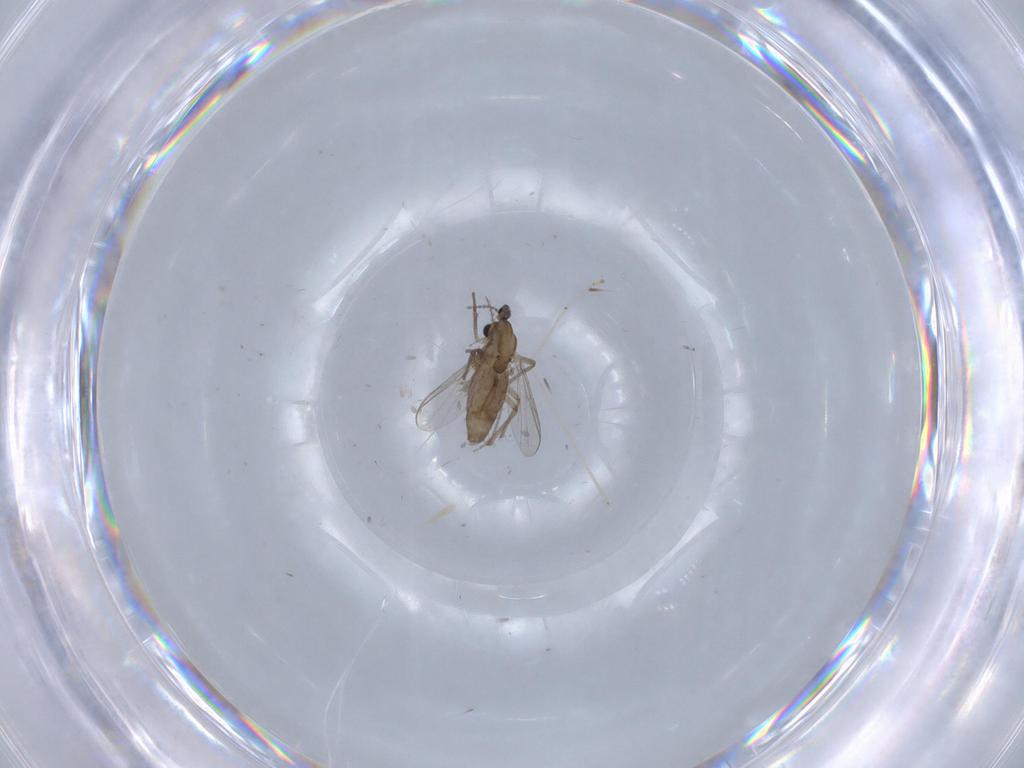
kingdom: Animalia
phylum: Arthropoda
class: Insecta
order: Diptera
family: Chironomidae
